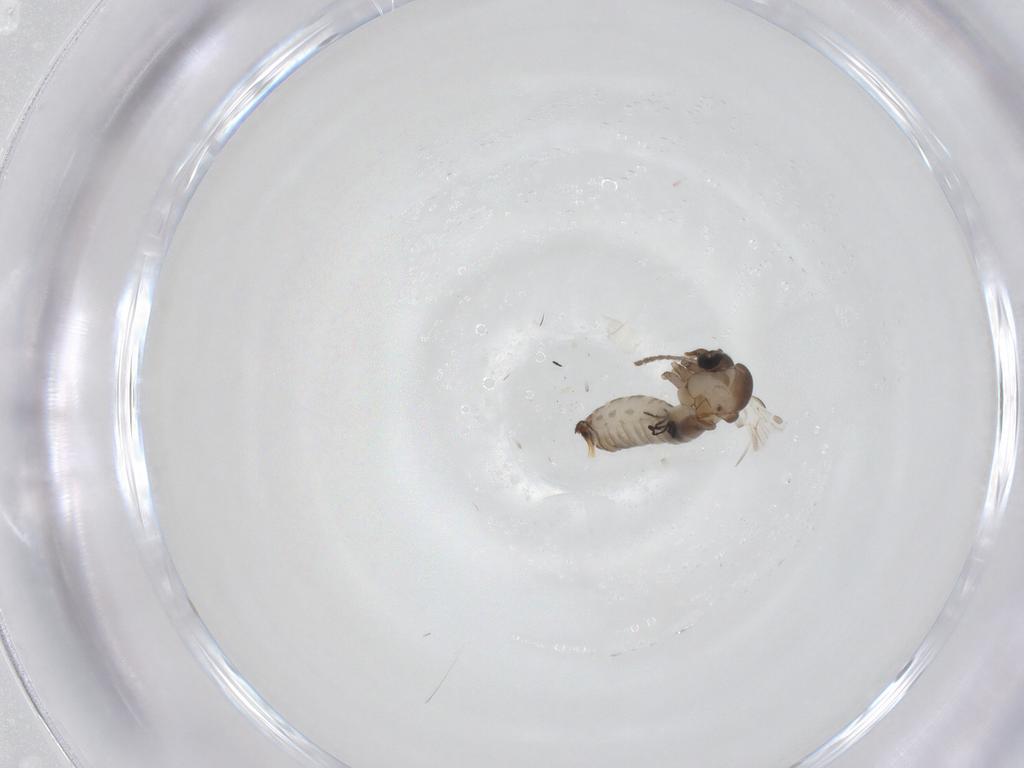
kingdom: Animalia
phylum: Arthropoda
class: Insecta
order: Diptera
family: Psychodidae
